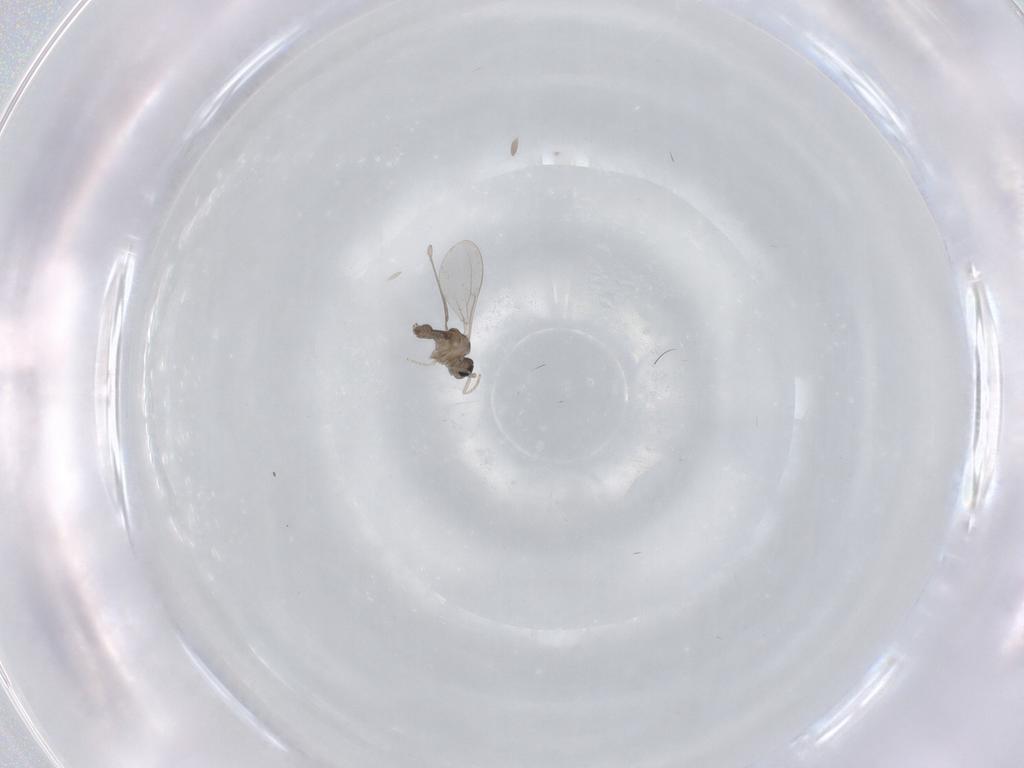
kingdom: Animalia
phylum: Arthropoda
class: Insecta
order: Diptera
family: Cecidomyiidae
